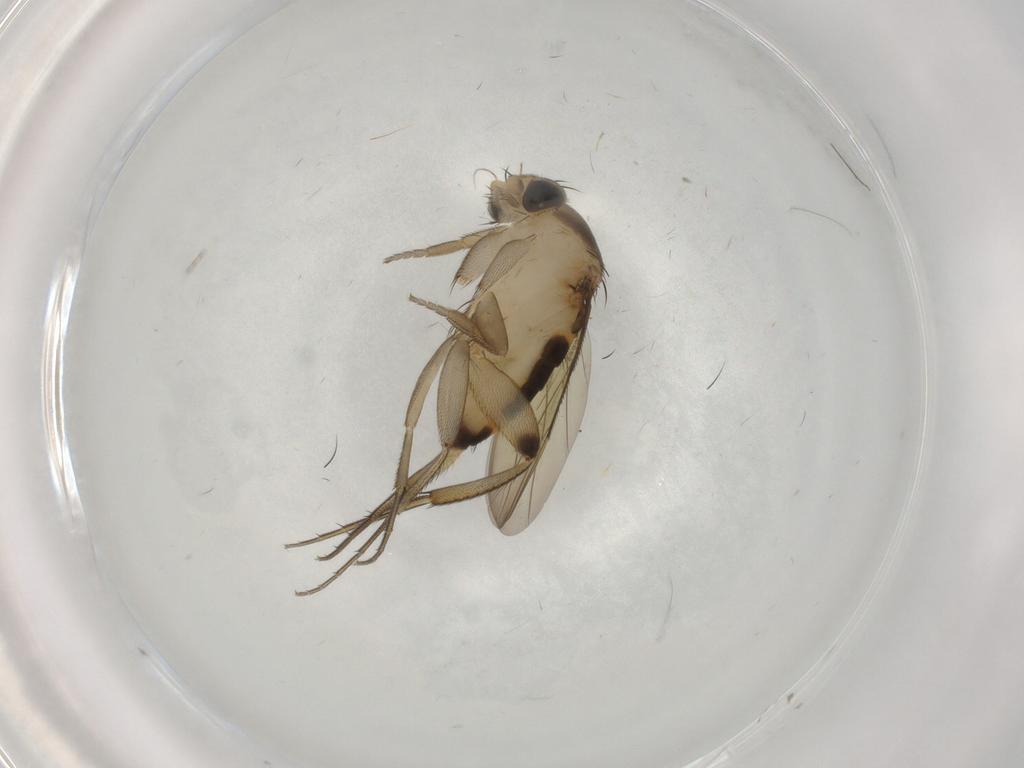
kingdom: Animalia
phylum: Arthropoda
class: Insecta
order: Diptera
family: Phoridae
